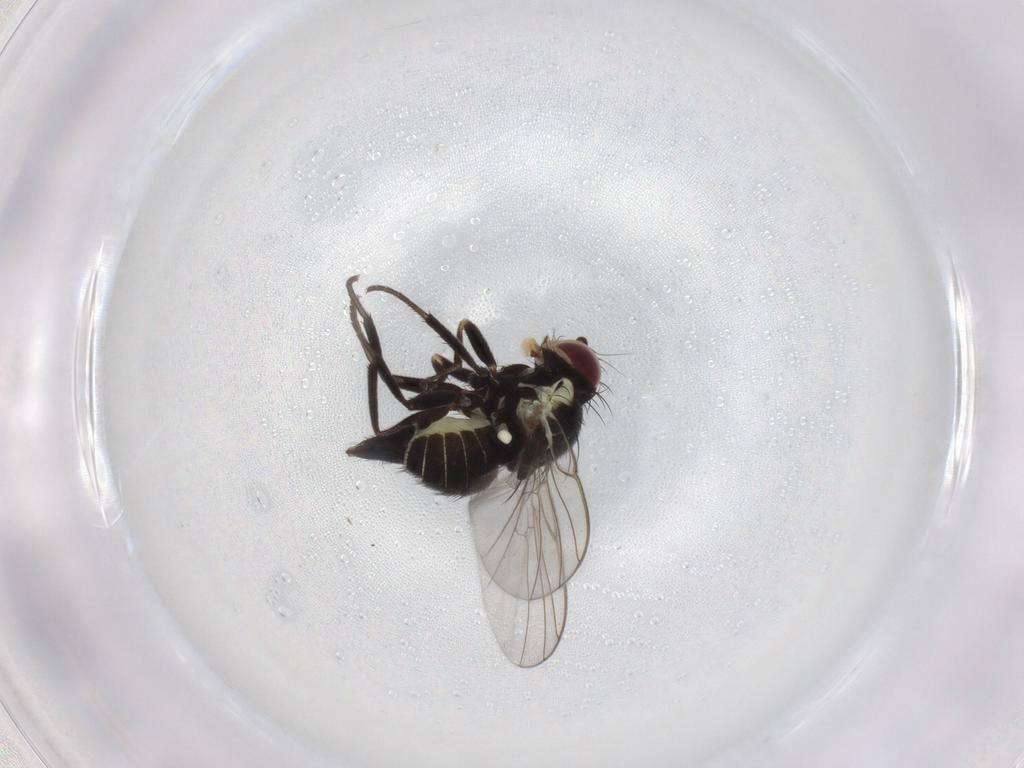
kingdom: Animalia
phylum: Arthropoda
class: Insecta
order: Diptera
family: Agromyzidae
